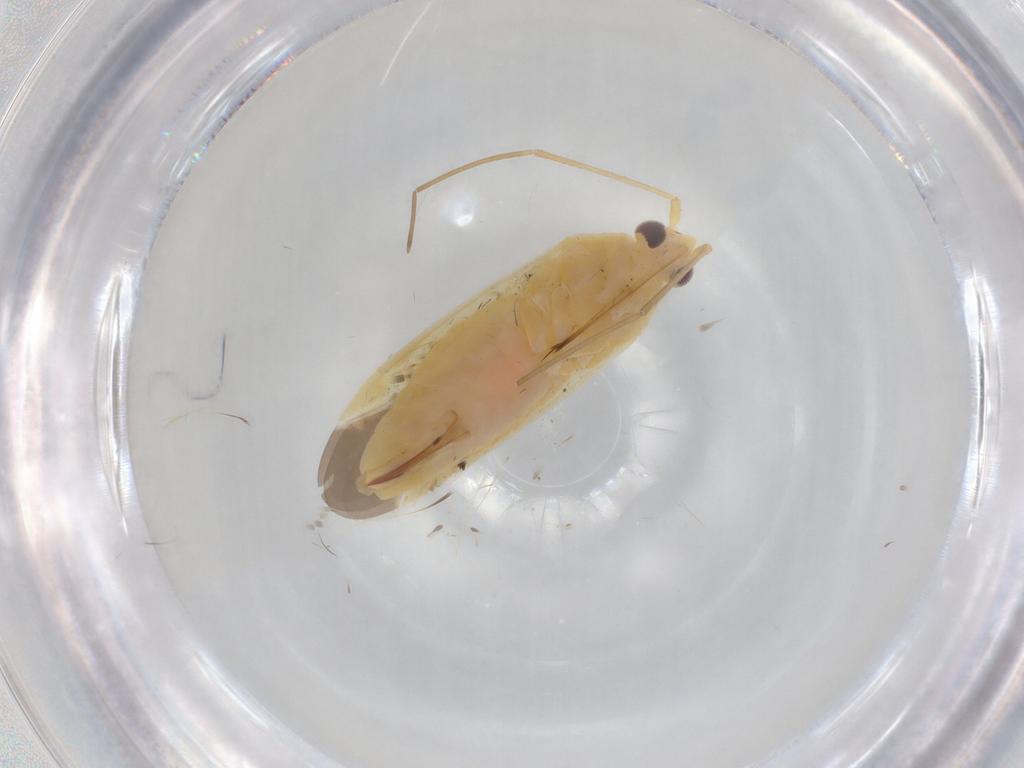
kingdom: Animalia
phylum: Arthropoda
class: Insecta
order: Hemiptera
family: Miridae
